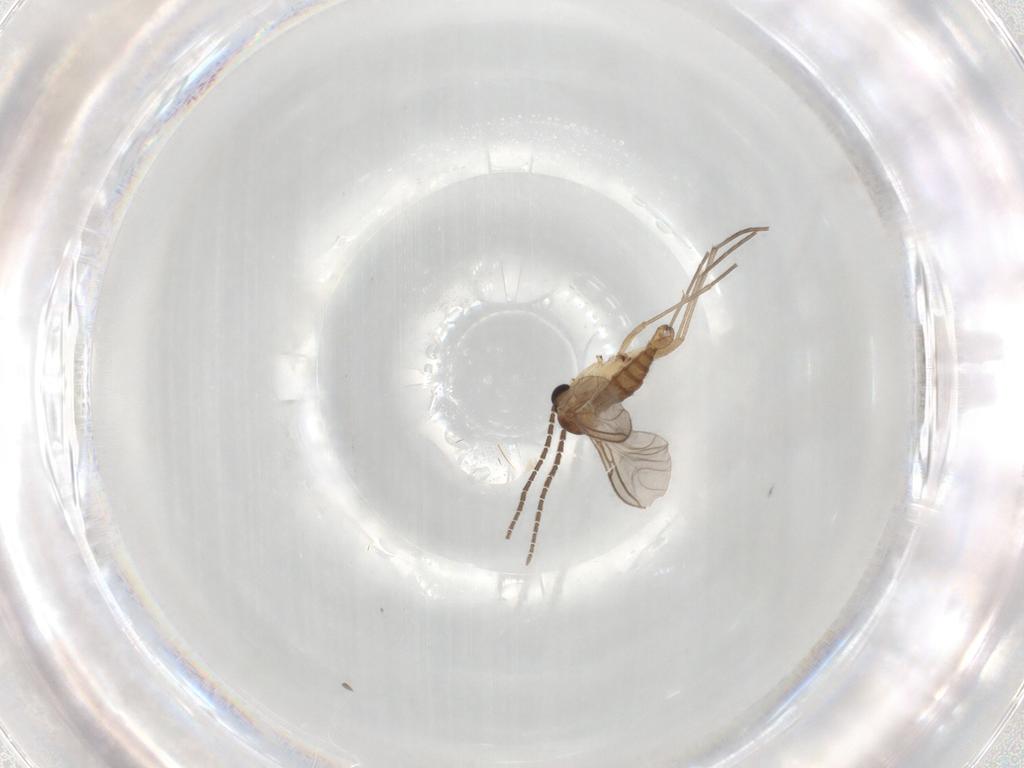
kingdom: Animalia
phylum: Arthropoda
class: Insecta
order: Diptera
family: Sciaridae
